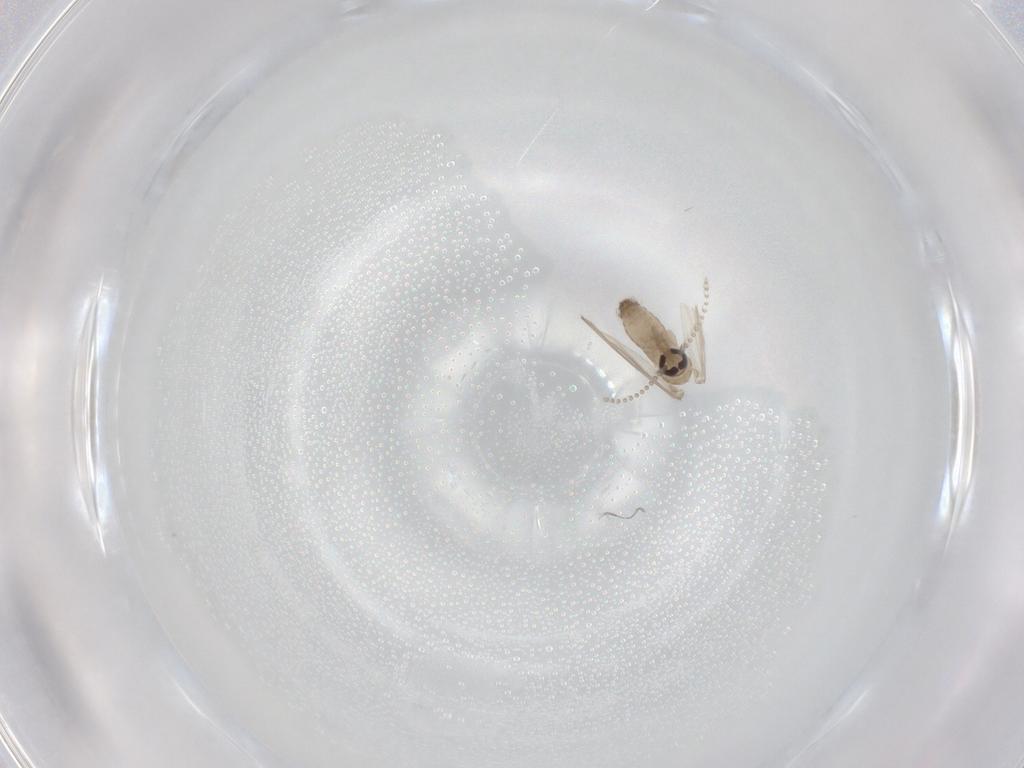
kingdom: Animalia
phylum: Arthropoda
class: Insecta
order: Diptera
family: Psychodidae
